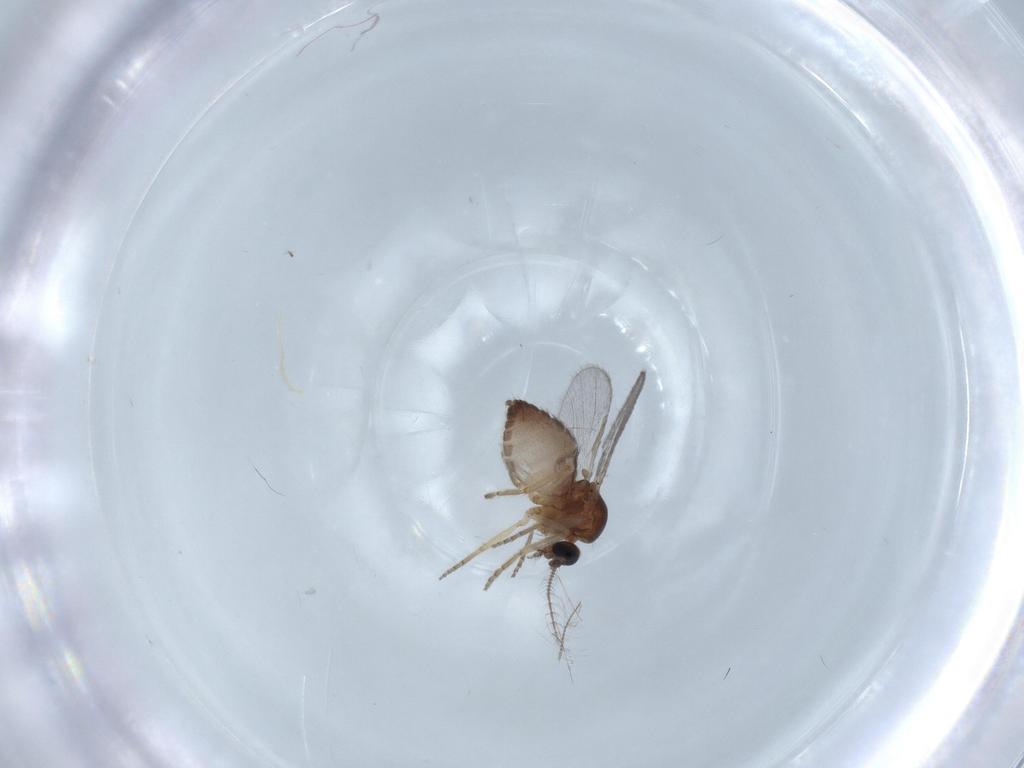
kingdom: Animalia
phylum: Arthropoda
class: Insecta
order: Diptera
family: Ceratopogonidae
